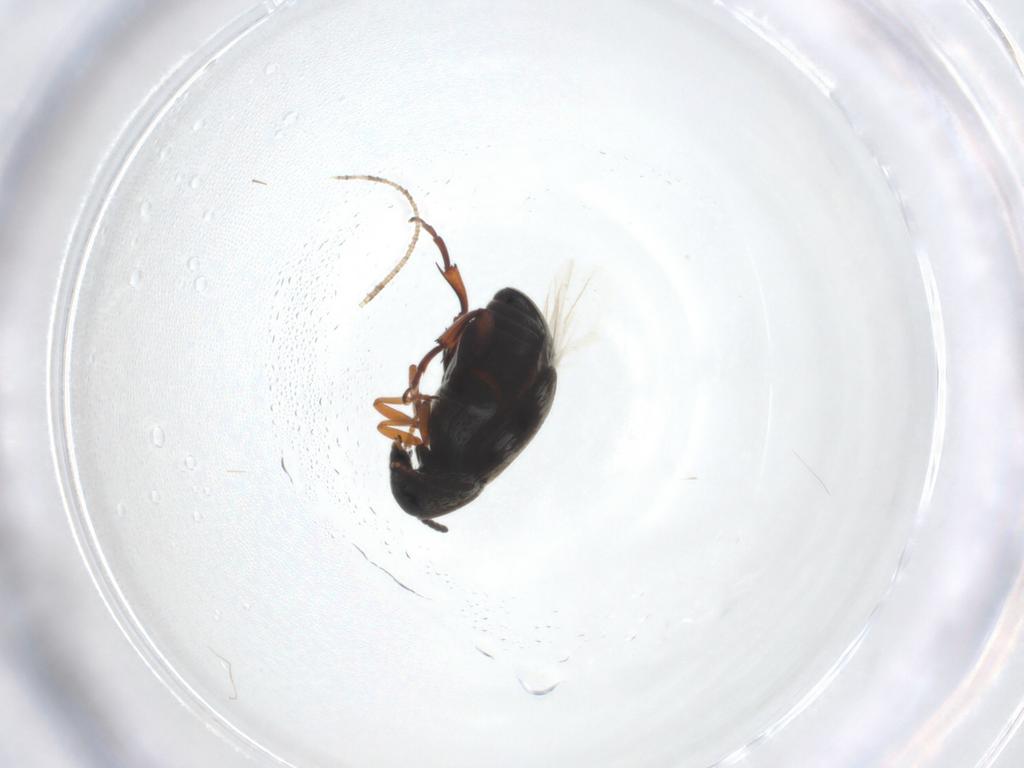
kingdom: Animalia
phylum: Arthropoda
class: Insecta
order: Coleoptera
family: Chrysomelidae
